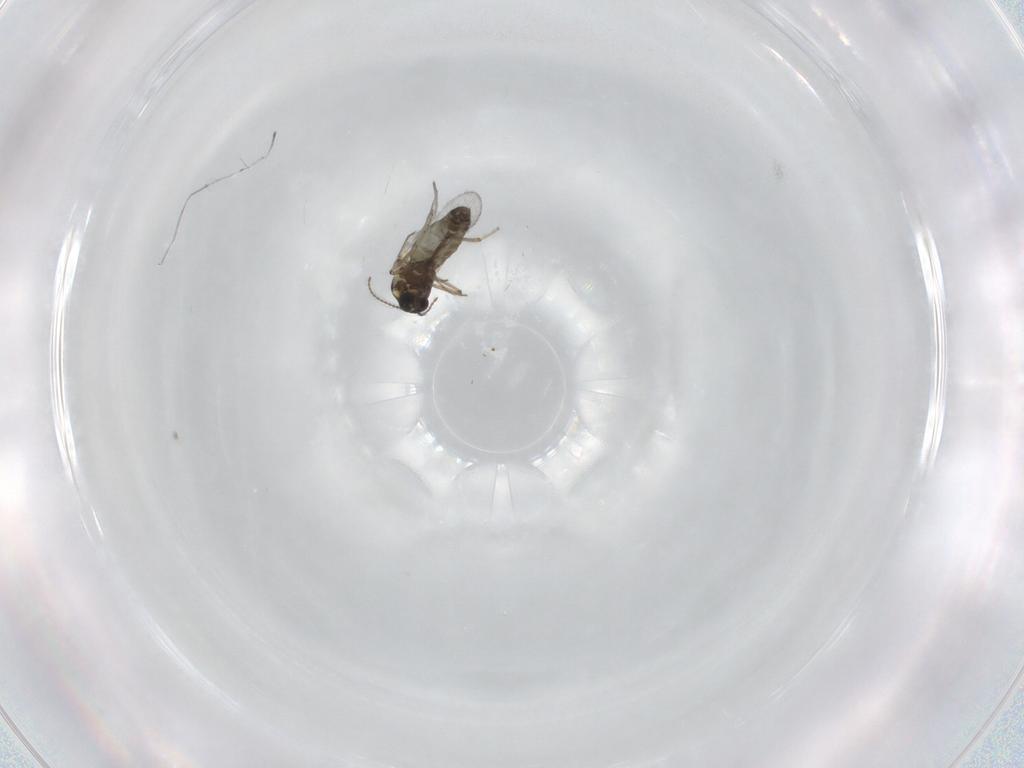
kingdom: Animalia
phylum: Arthropoda
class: Insecta
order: Diptera
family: Ceratopogonidae
